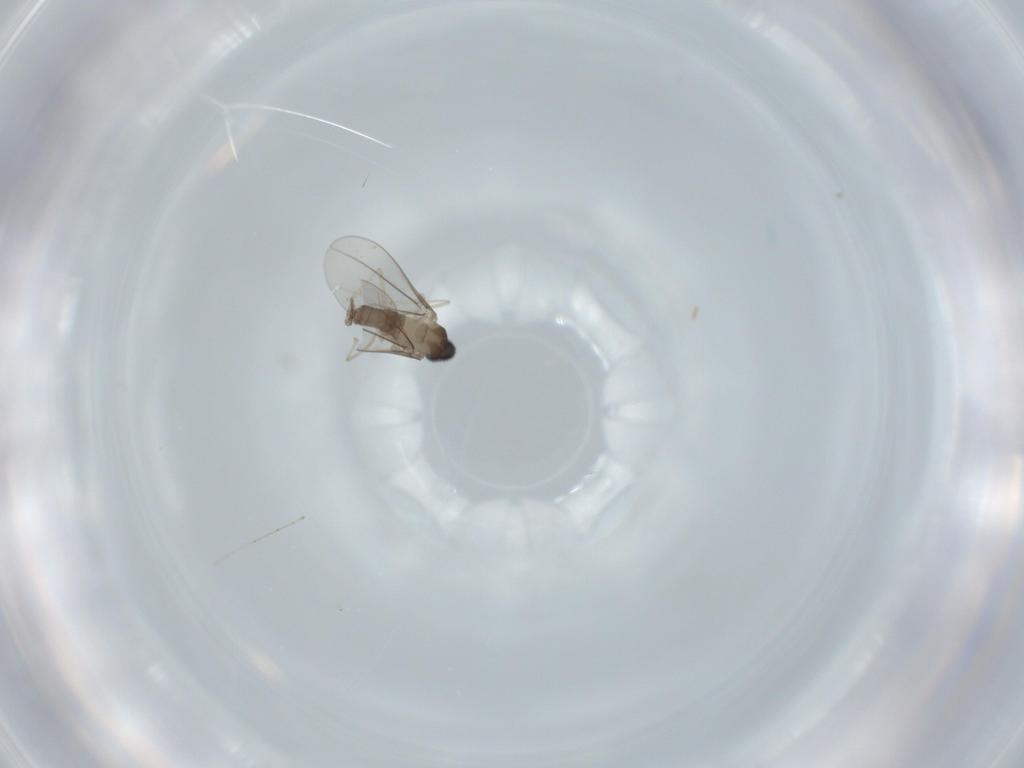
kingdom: Animalia
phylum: Arthropoda
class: Insecta
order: Diptera
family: Cecidomyiidae
